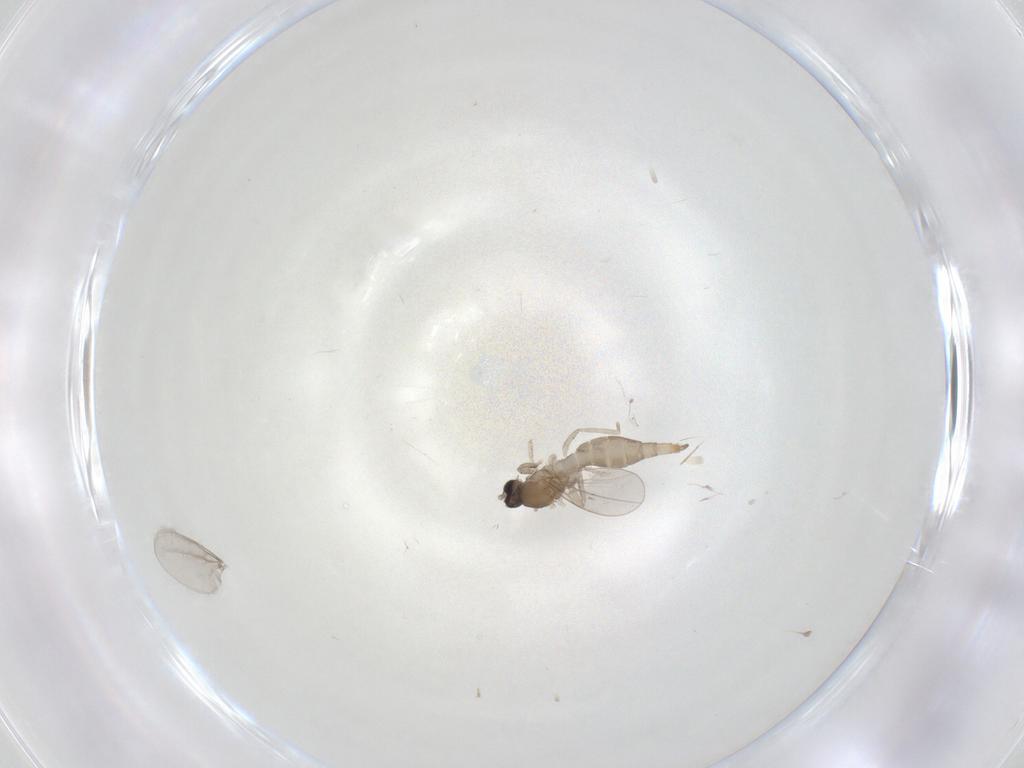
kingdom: Animalia
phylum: Arthropoda
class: Insecta
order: Diptera
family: Cecidomyiidae
